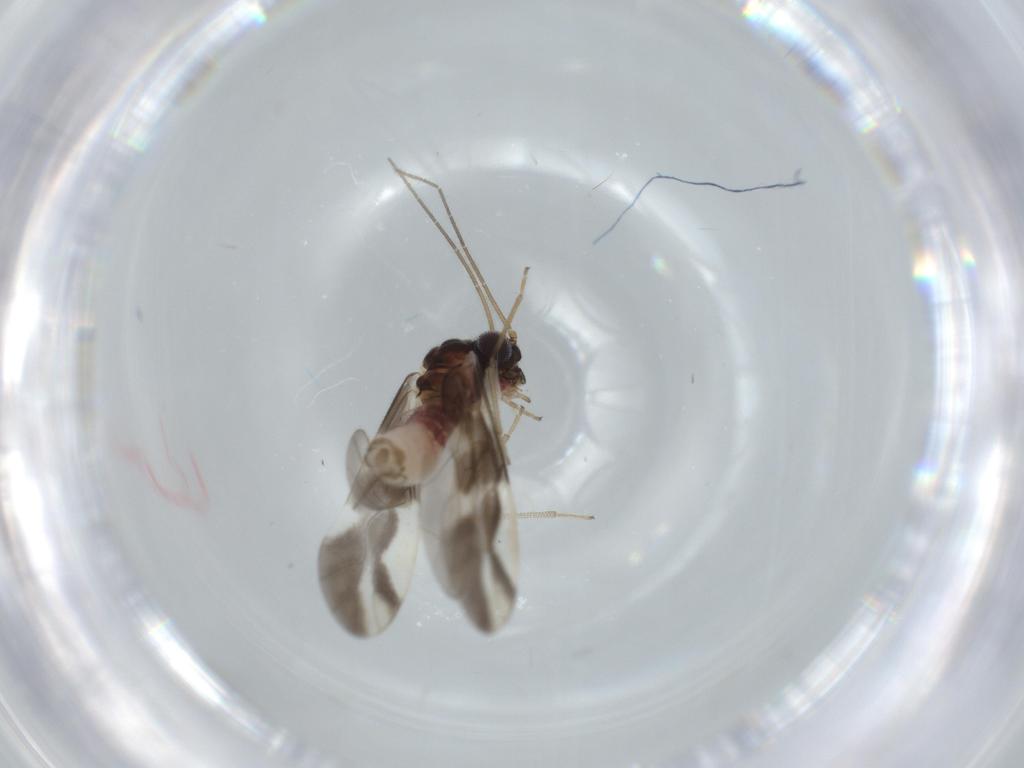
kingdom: Animalia
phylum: Arthropoda
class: Insecta
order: Psocodea
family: Caeciliusidae
